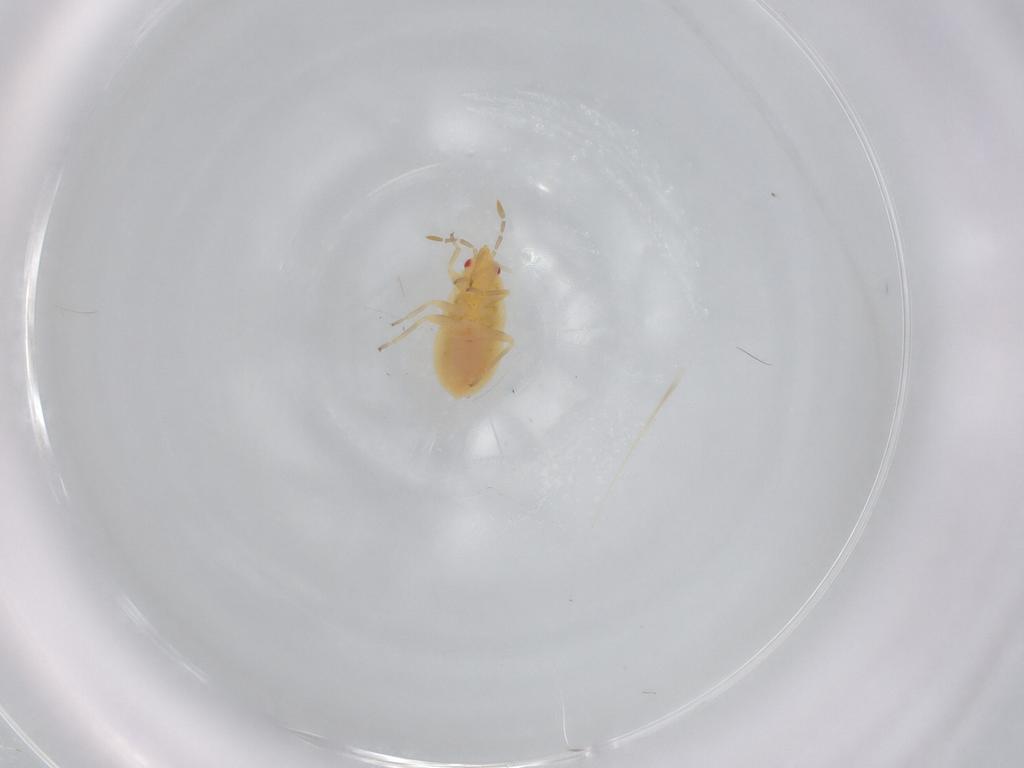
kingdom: Animalia
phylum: Arthropoda
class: Insecta
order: Hemiptera
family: Anthocoridae
